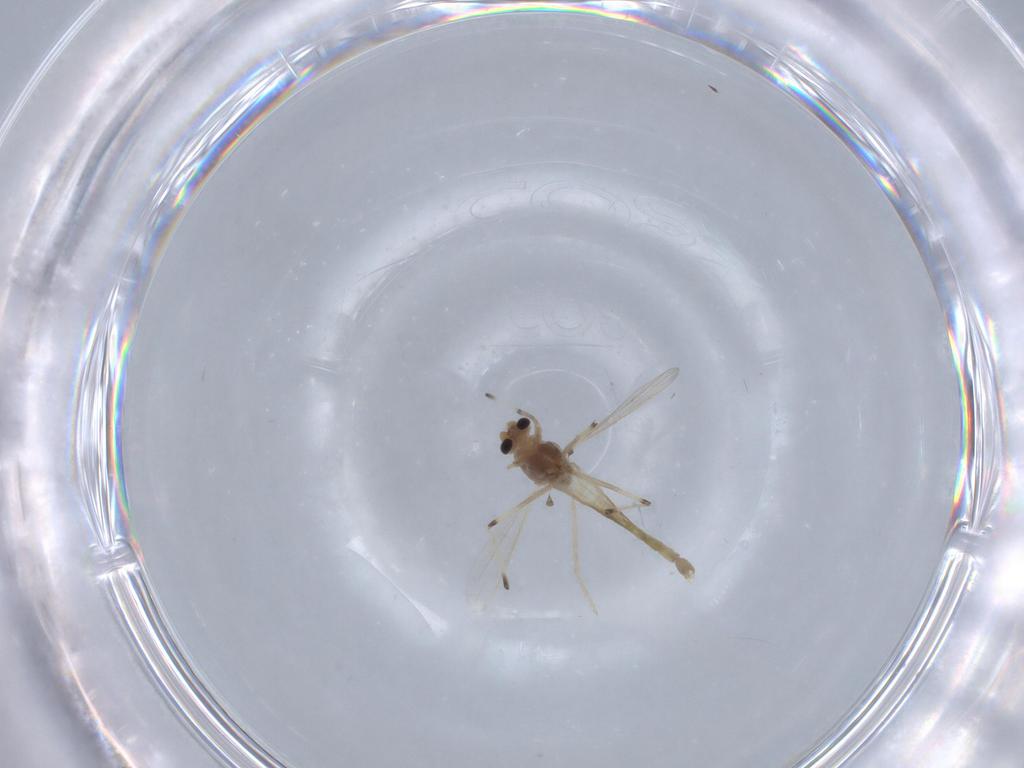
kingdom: Animalia
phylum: Arthropoda
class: Insecta
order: Diptera
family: Chironomidae
